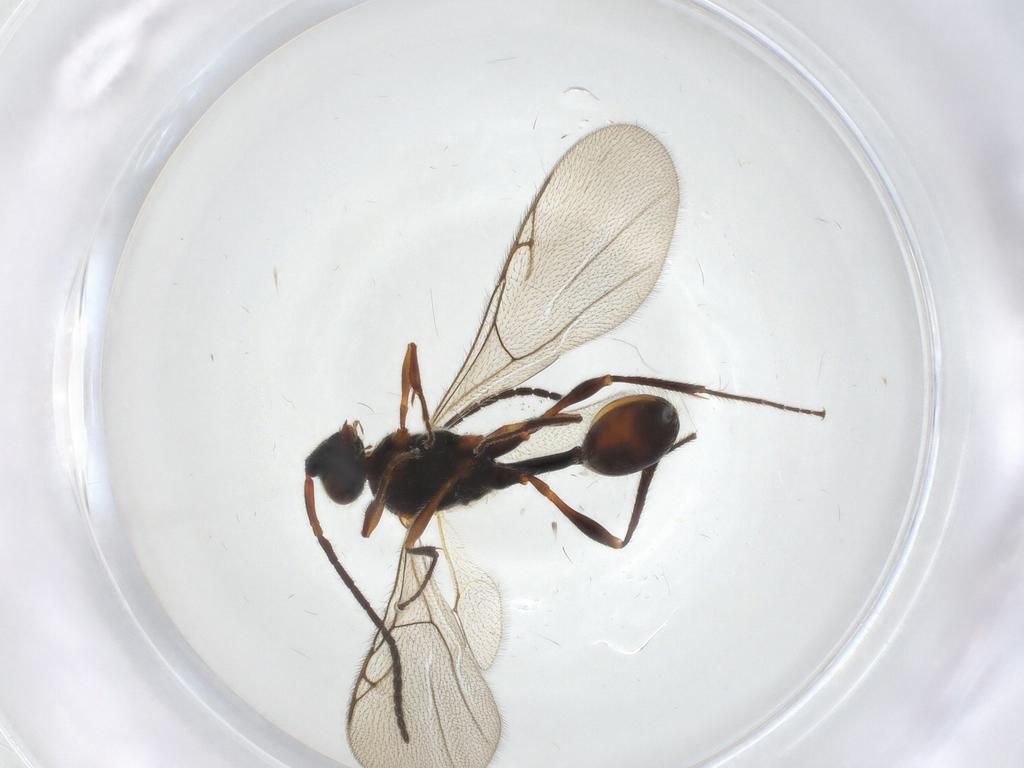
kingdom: Animalia
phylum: Arthropoda
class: Insecta
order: Hymenoptera
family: Diapriidae
